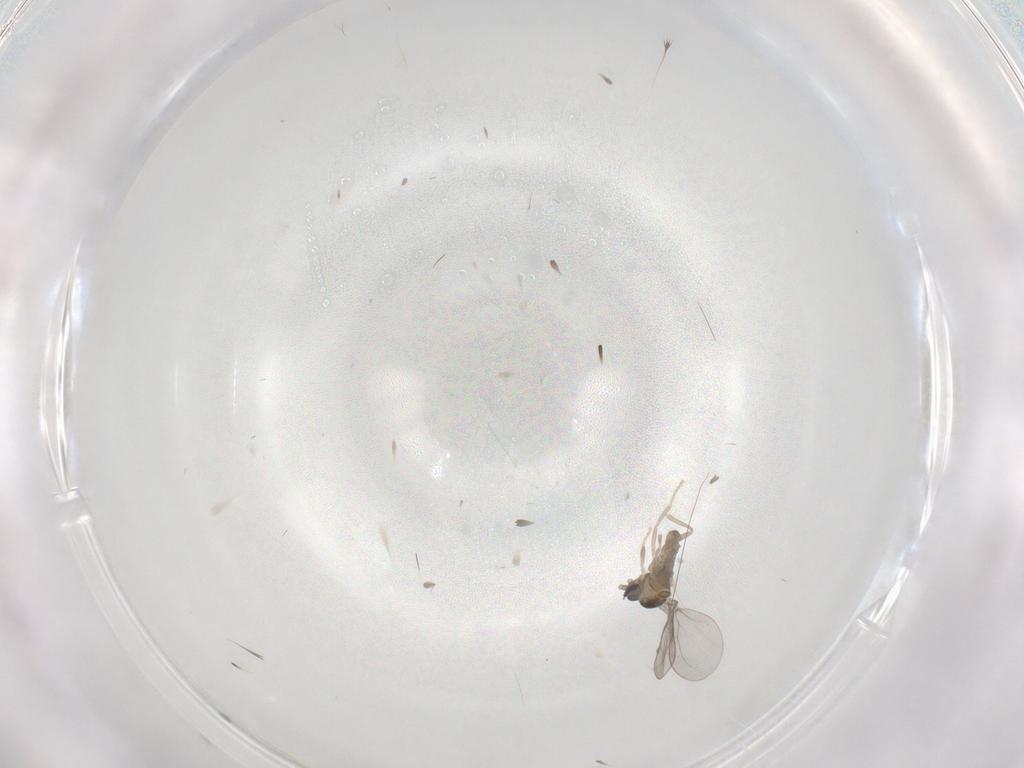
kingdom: Animalia
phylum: Arthropoda
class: Insecta
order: Diptera
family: Cecidomyiidae
